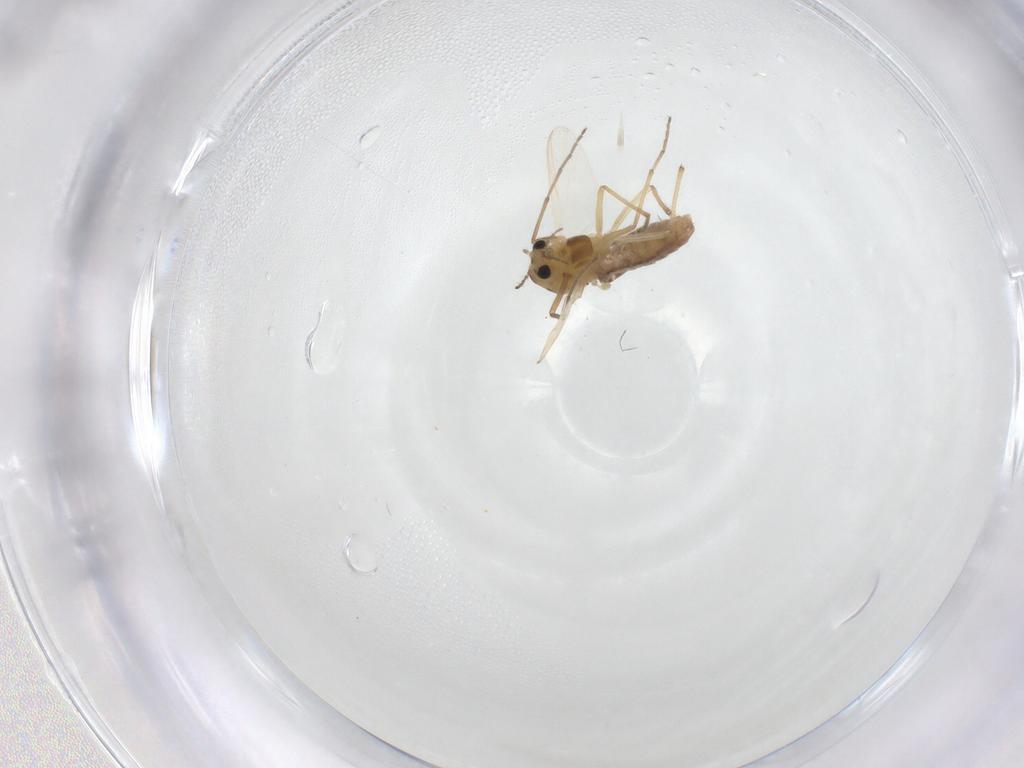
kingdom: Animalia
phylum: Arthropoda
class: Insecta
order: Diptera
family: Chironomidae
